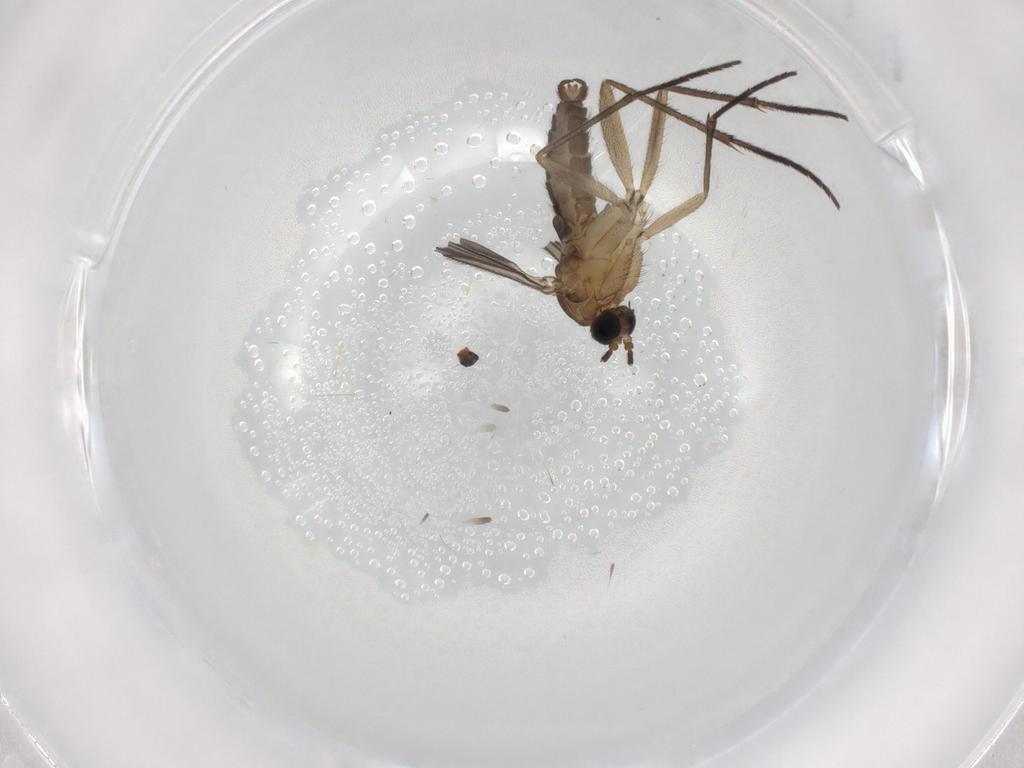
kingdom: Animalia
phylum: Arthropoda
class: Insecta
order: Diptera
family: Sciaridae
